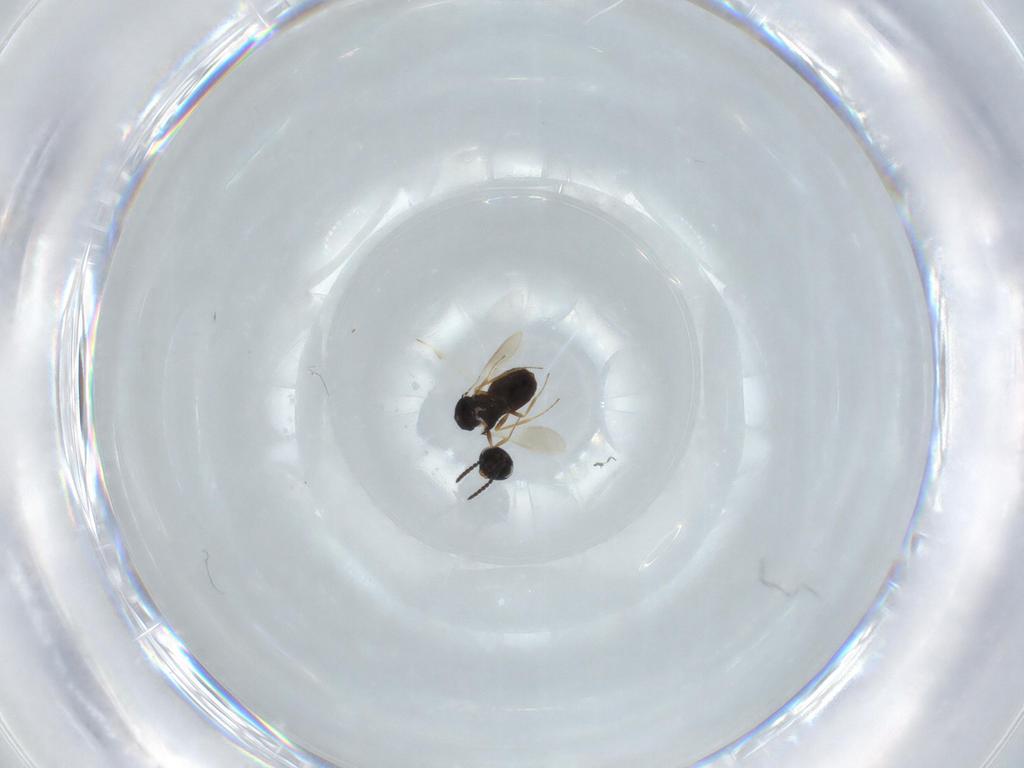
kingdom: Animalia
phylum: Arthropoda
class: Insecta
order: Hymenoptera
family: Scelionidae
